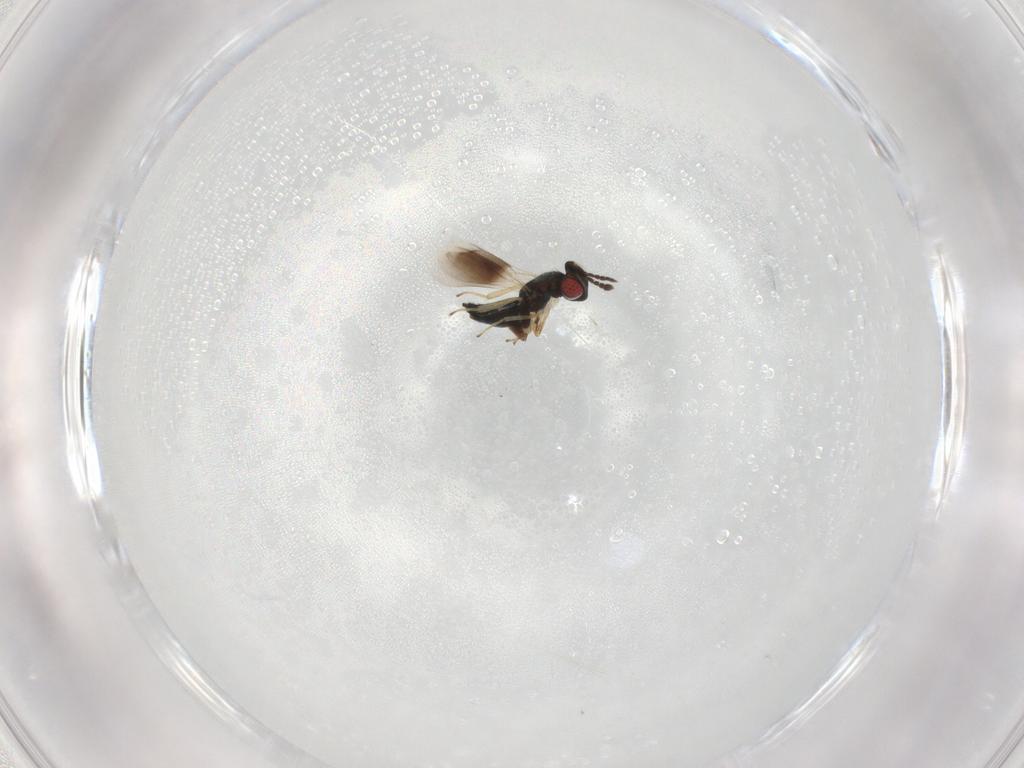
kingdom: Animalia
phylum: Arthropoda
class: Insecta
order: Hymenoptera
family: Eulophidae
